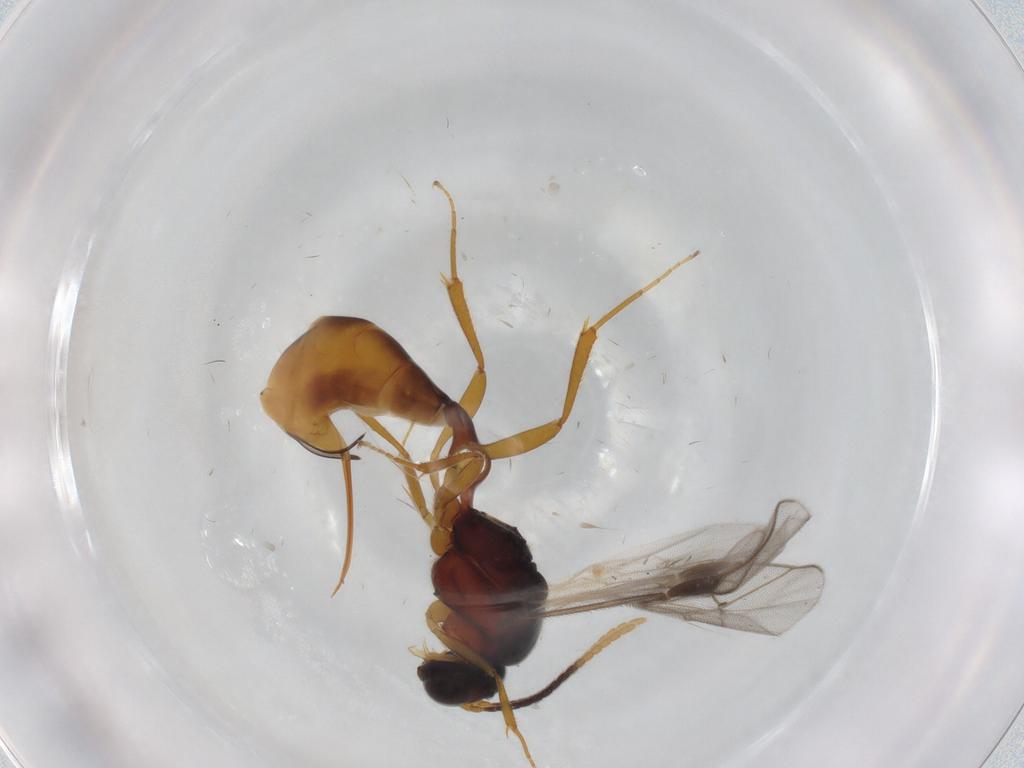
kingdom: Animalia
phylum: Arthropoda
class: Insecta
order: Hymenoptera
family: Ichneumonidae
